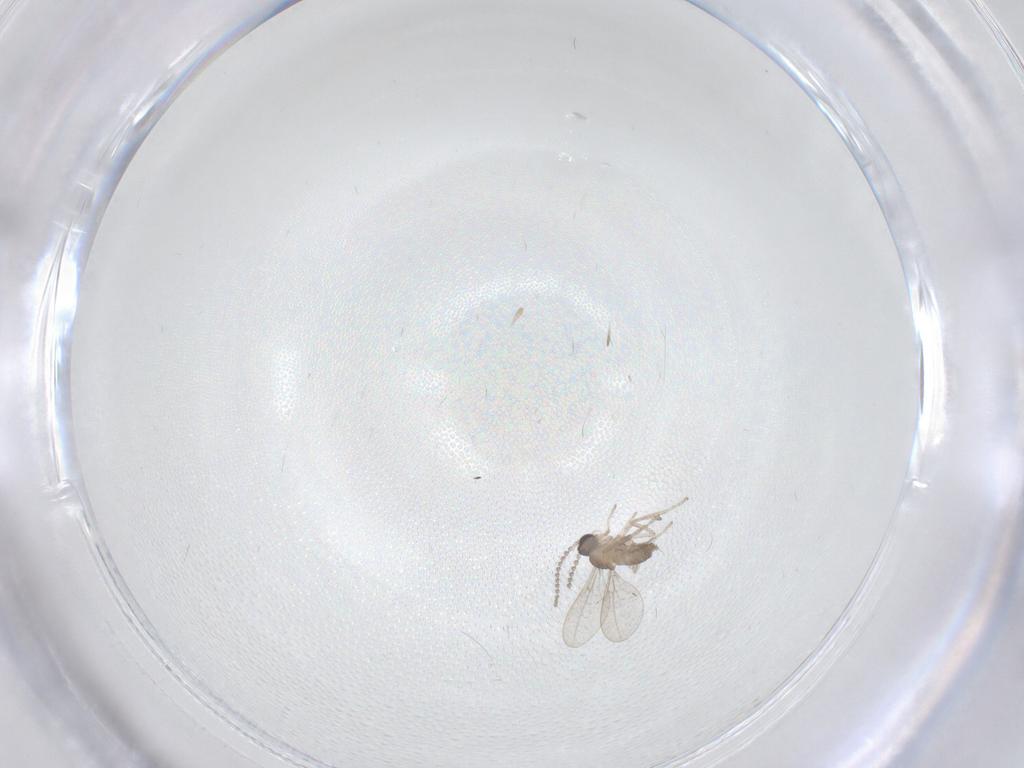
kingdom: Animalia
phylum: Arthropoda
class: Insecta
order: Diptera
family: Cecidomyiidae
